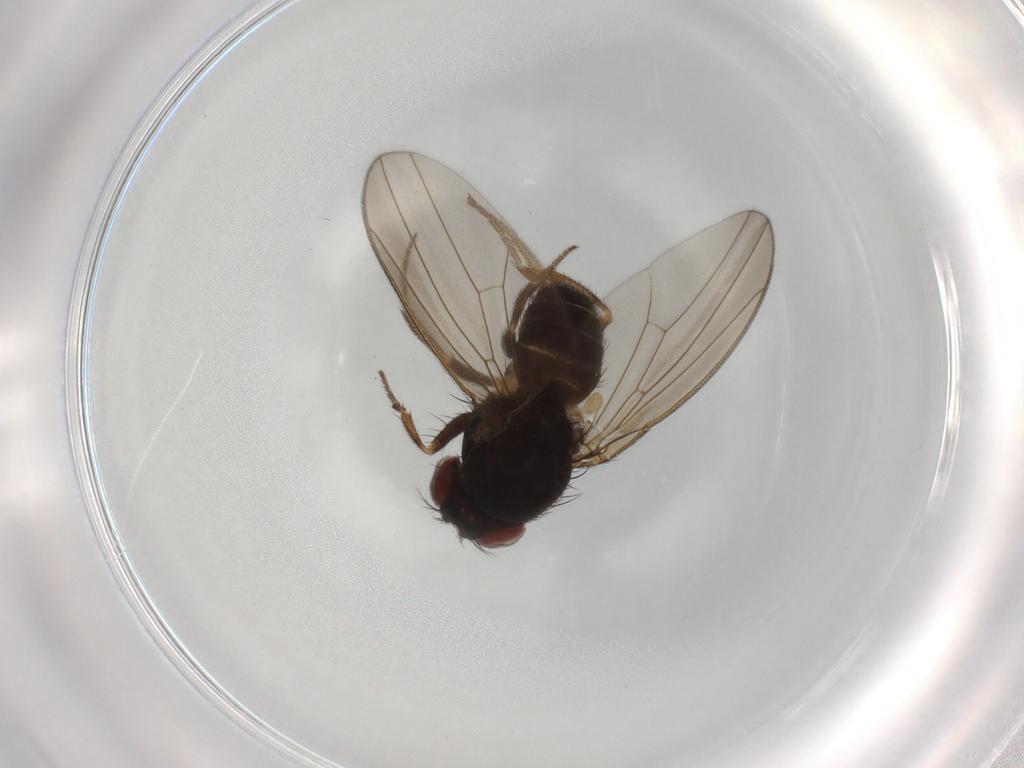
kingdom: Animalia
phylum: Arthropoda
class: Insecta
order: Diptera
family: Drosophilidae
